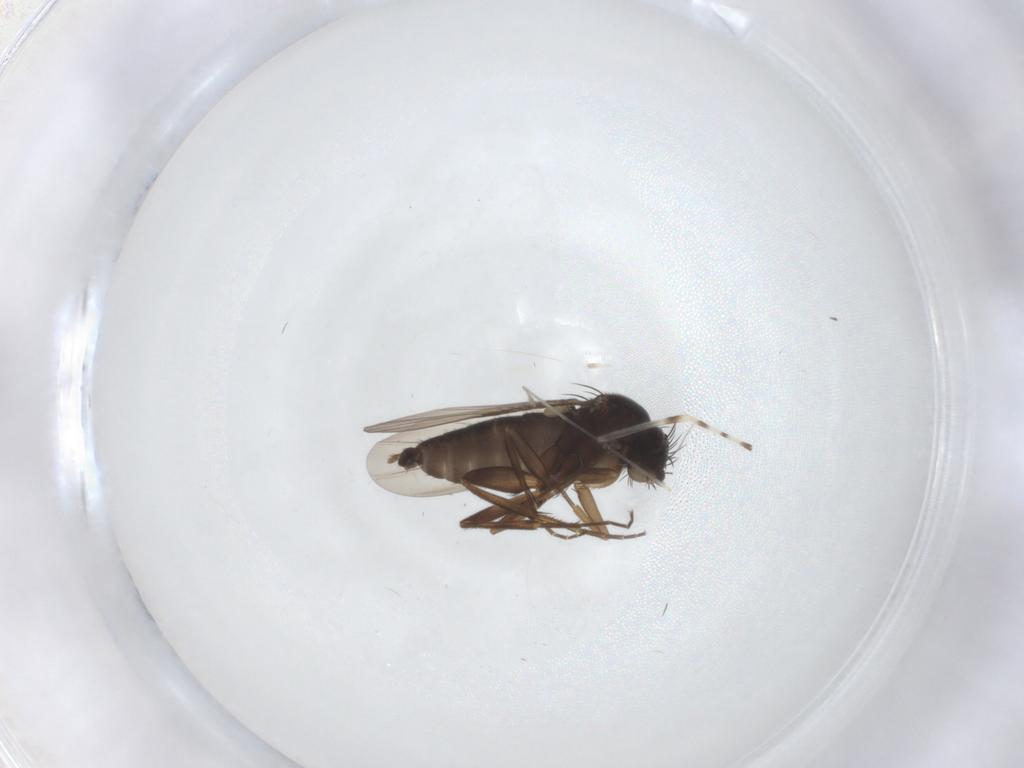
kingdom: Animalia
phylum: Arthropoda
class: Insecta
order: Diptera
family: Phoridae
